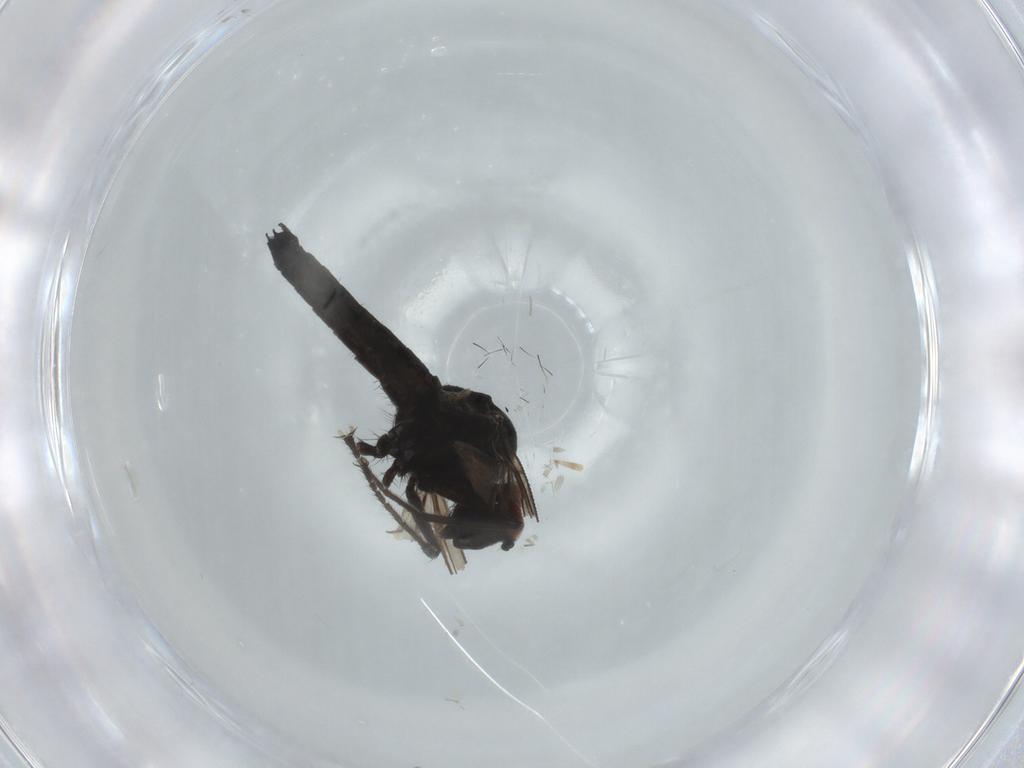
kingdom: Animalia
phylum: Arthropoda
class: Insecta
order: Diptera
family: Hybotidae
